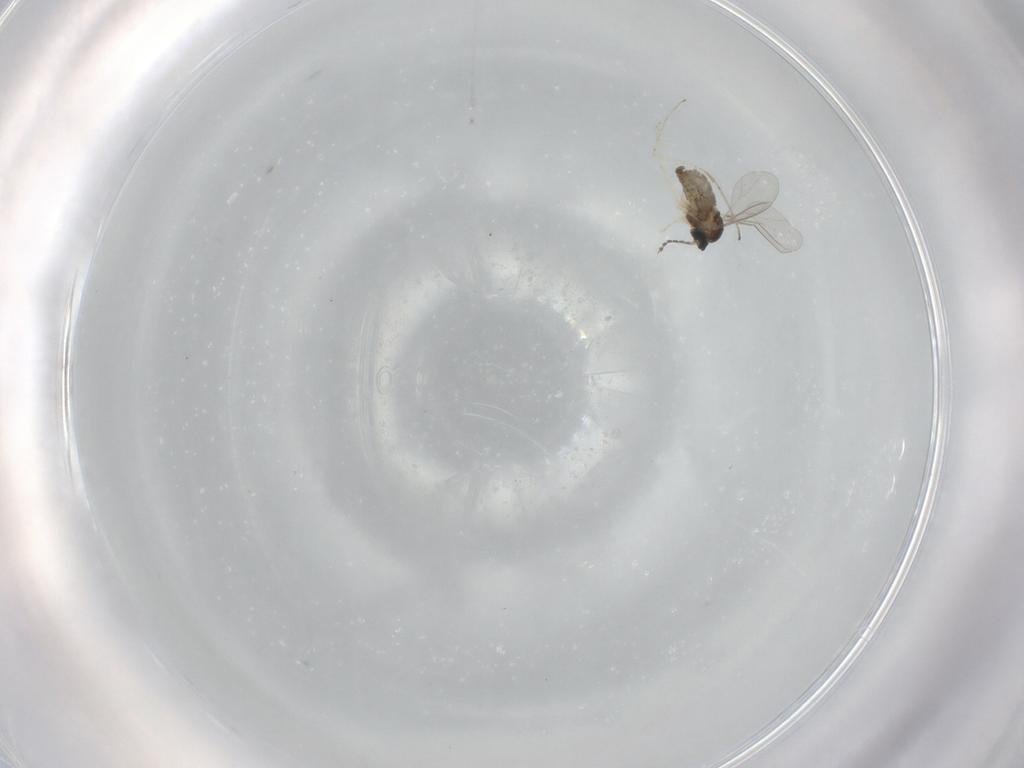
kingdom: Animalia
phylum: Arthropoda
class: Insecta
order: Diptera
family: Cecidomyiidae
